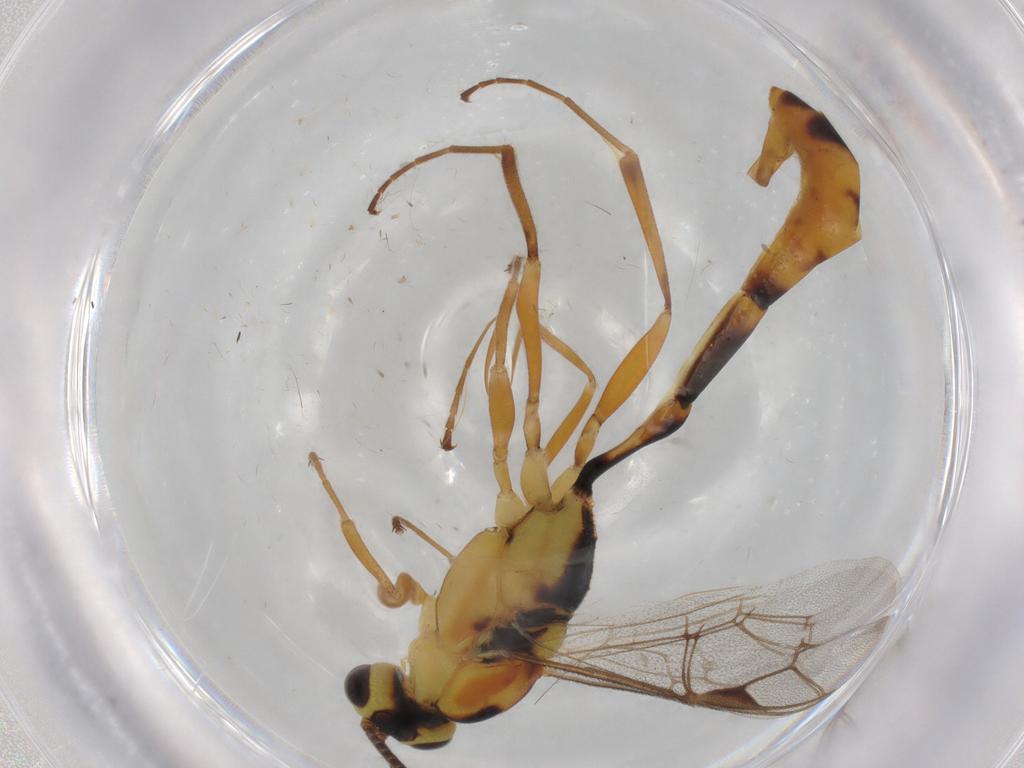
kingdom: Animalia
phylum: Arthropoda
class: Insecta
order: Hymenoptera
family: Ichneumonidae
